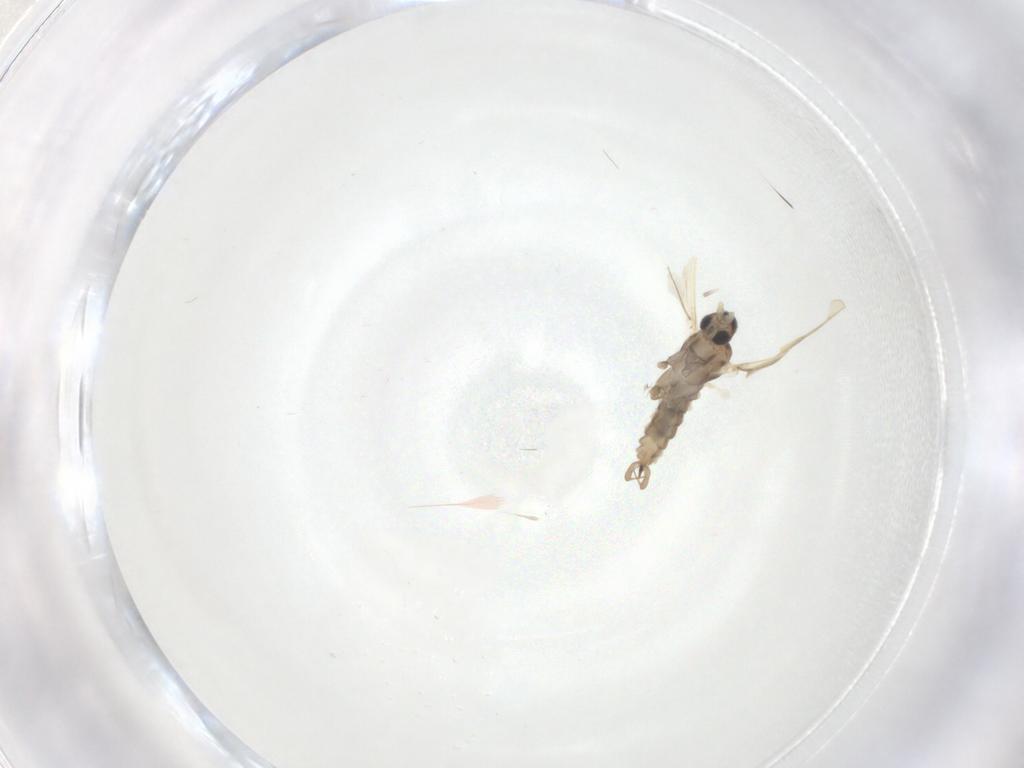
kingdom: Animalia
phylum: Arthropoda
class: Insecta
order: Diptera
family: Cecidomyiidae
